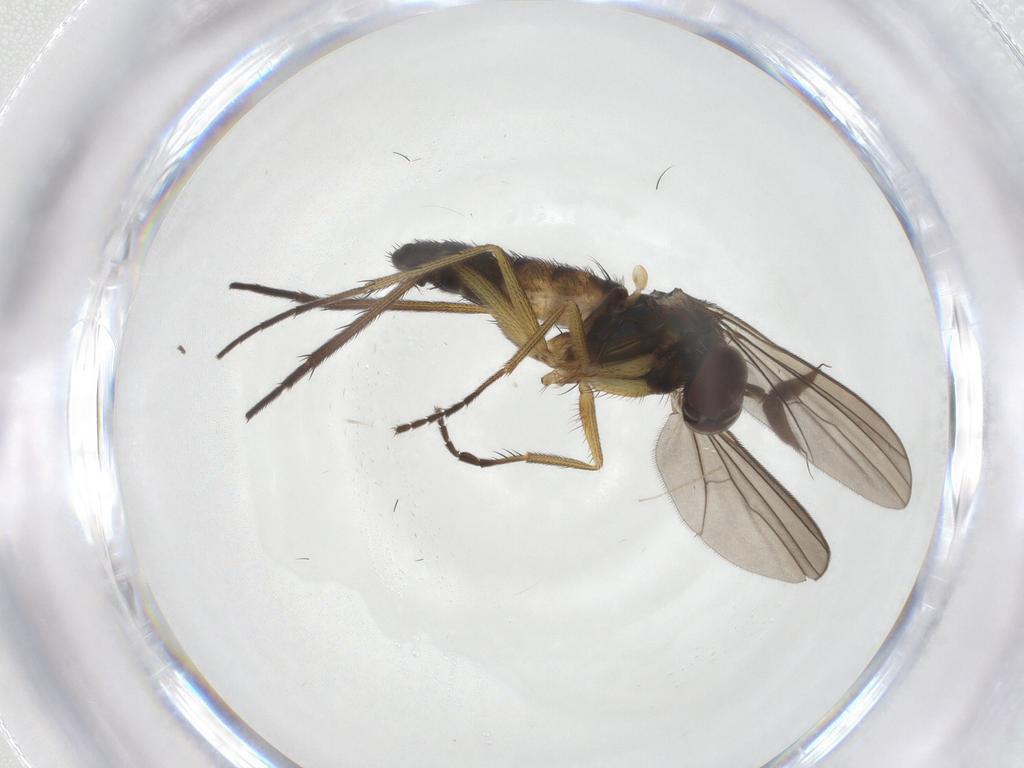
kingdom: Animalia
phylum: Arthropoda
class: Insecta
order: Diptera
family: Dolichopodidae
